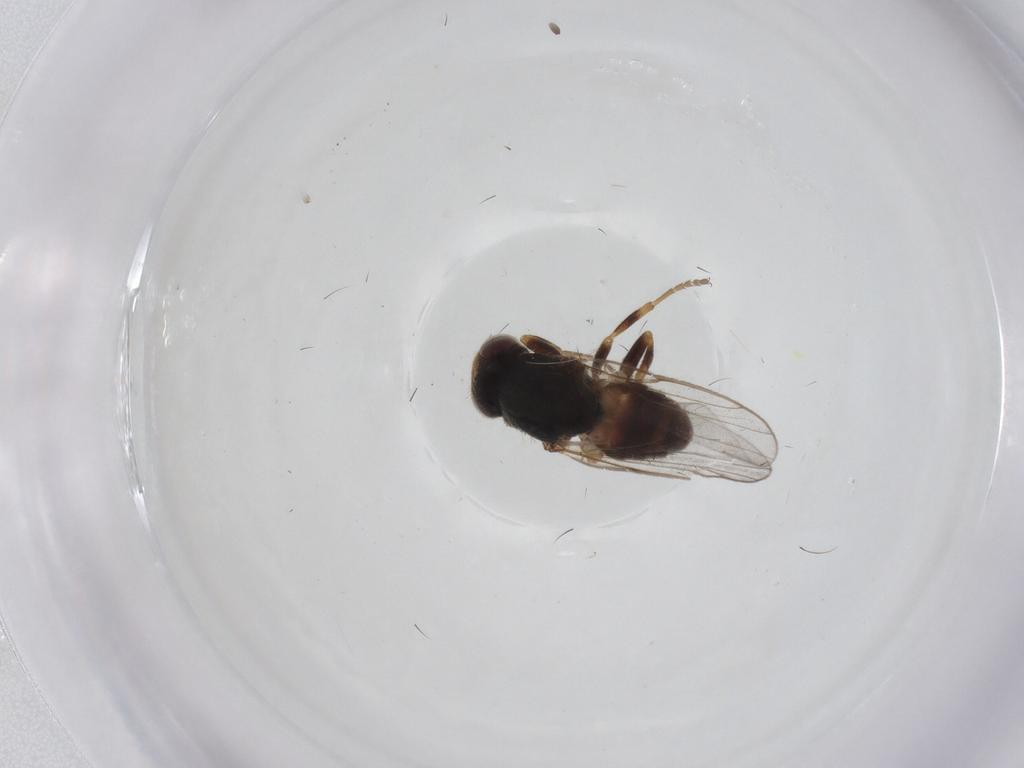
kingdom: Animalia
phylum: Arthropoda
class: Insecta
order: Diptera
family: Chloropidae
